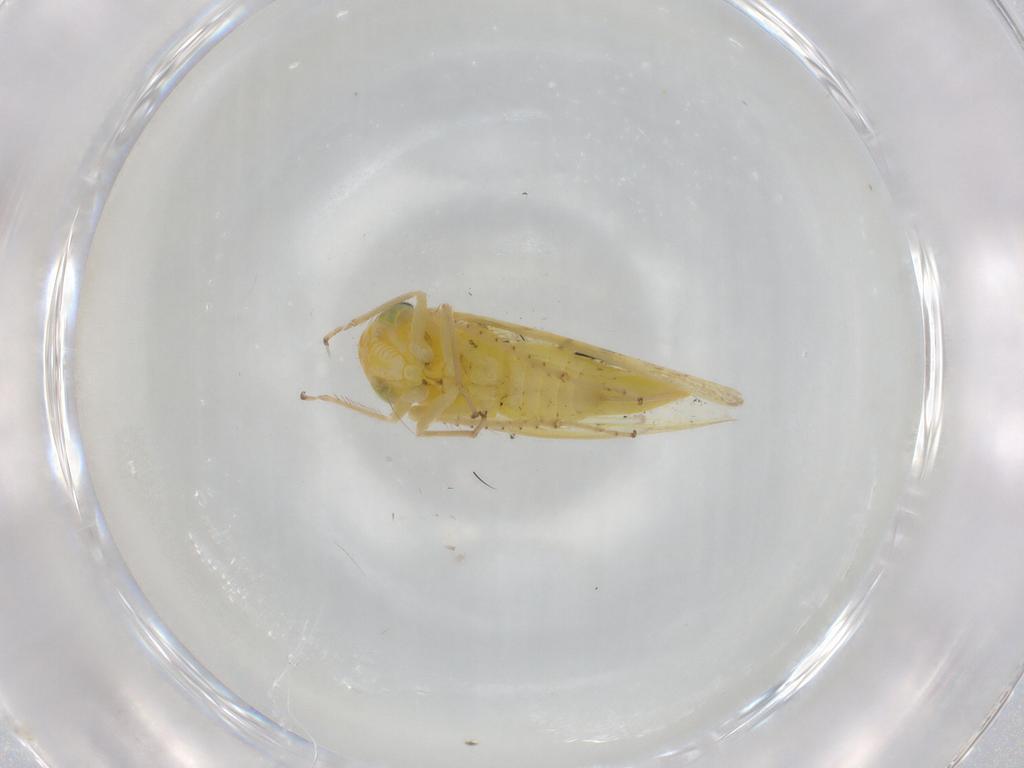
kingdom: Animalia
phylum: Arthropoda
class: Insecta
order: Hemiptera
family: Cicadellidae
